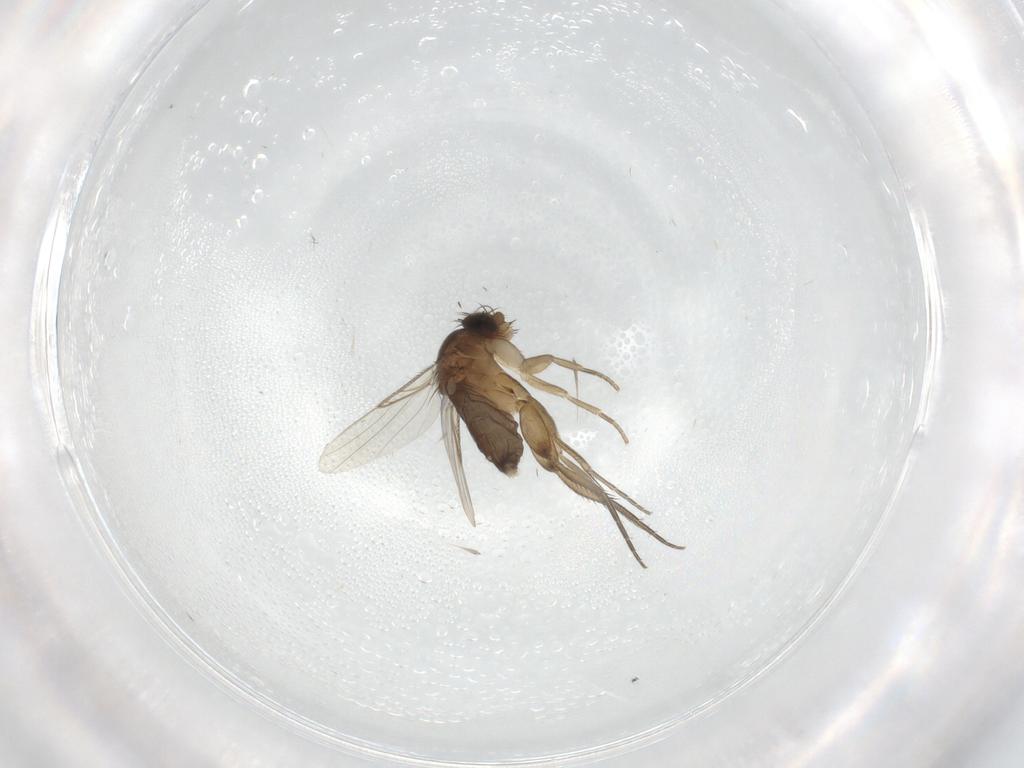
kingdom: Animalia
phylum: Arthropoda
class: Insecta
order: Diptera
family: Phoridae
